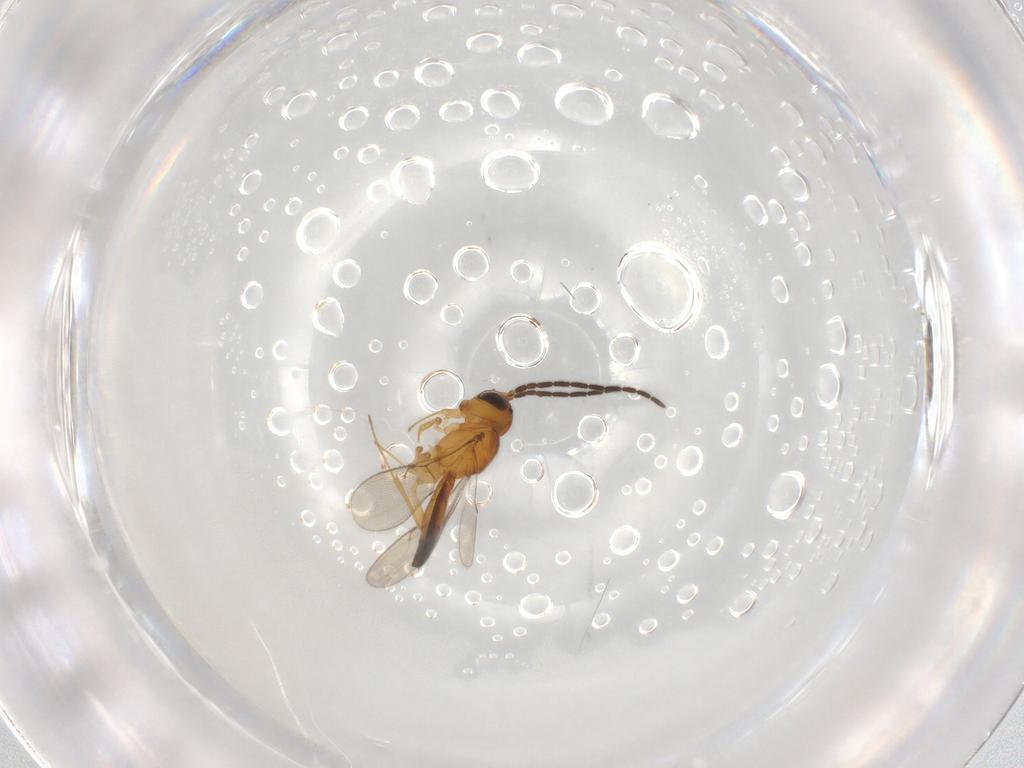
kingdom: Animalia
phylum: Arthropoda
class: Insecta
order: Hymenoptera
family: Scelionidae
